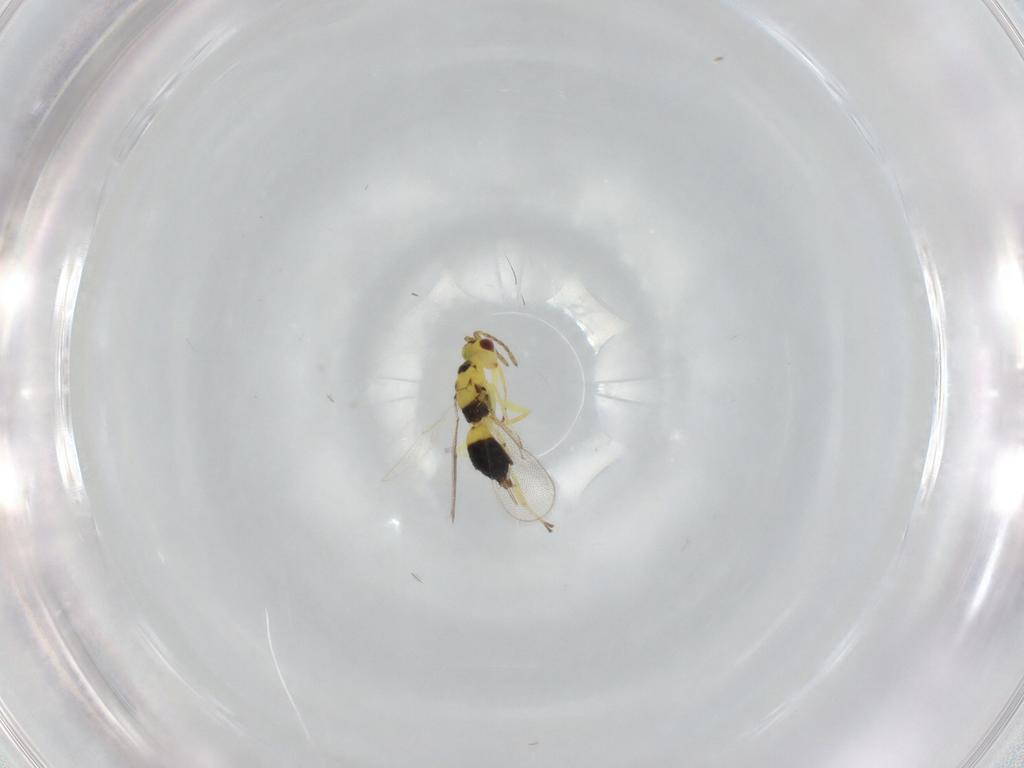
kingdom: Animalia
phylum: Arthropoda
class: Insecta
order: Hymenoptera
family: Eulophidae
